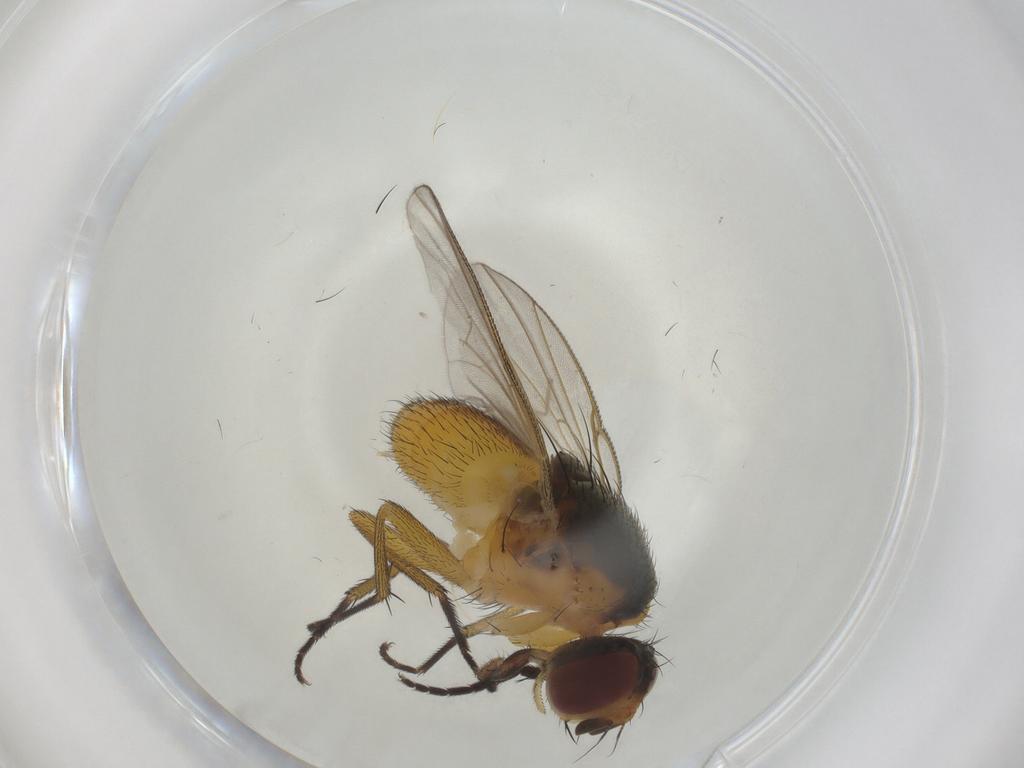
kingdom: Animalia
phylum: Arthropoda
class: Insecta
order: Diptera
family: Muscidae
